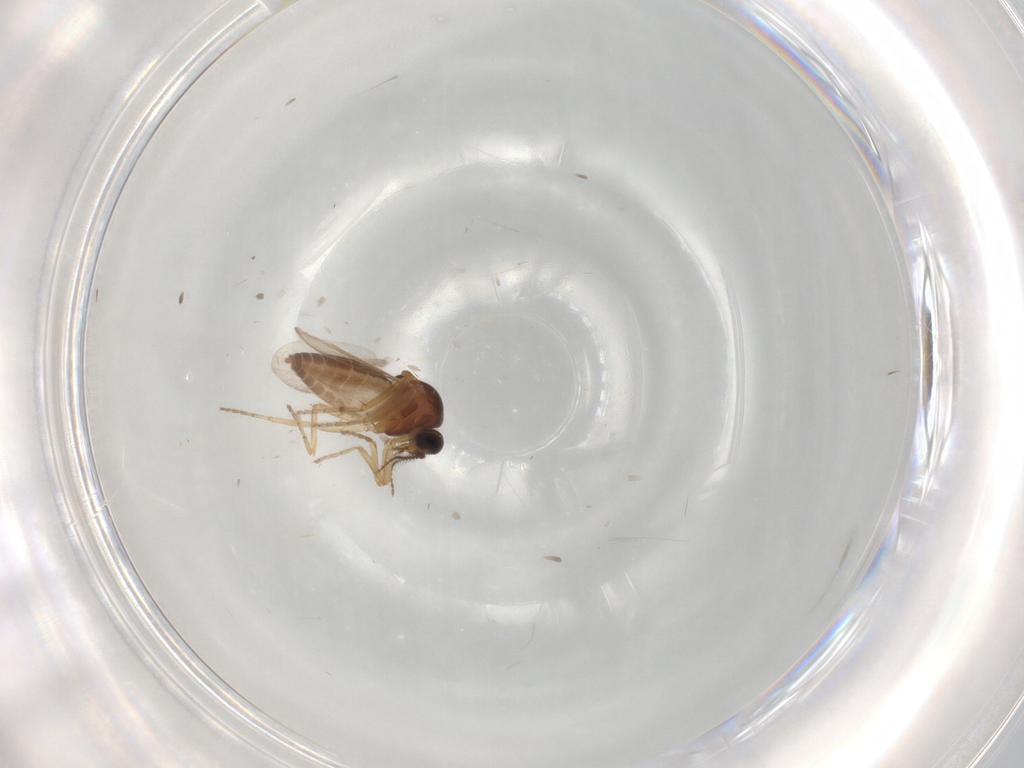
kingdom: Animalia
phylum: Arthropoda
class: Insecta
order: Diptera
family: Ceratopogonidae
